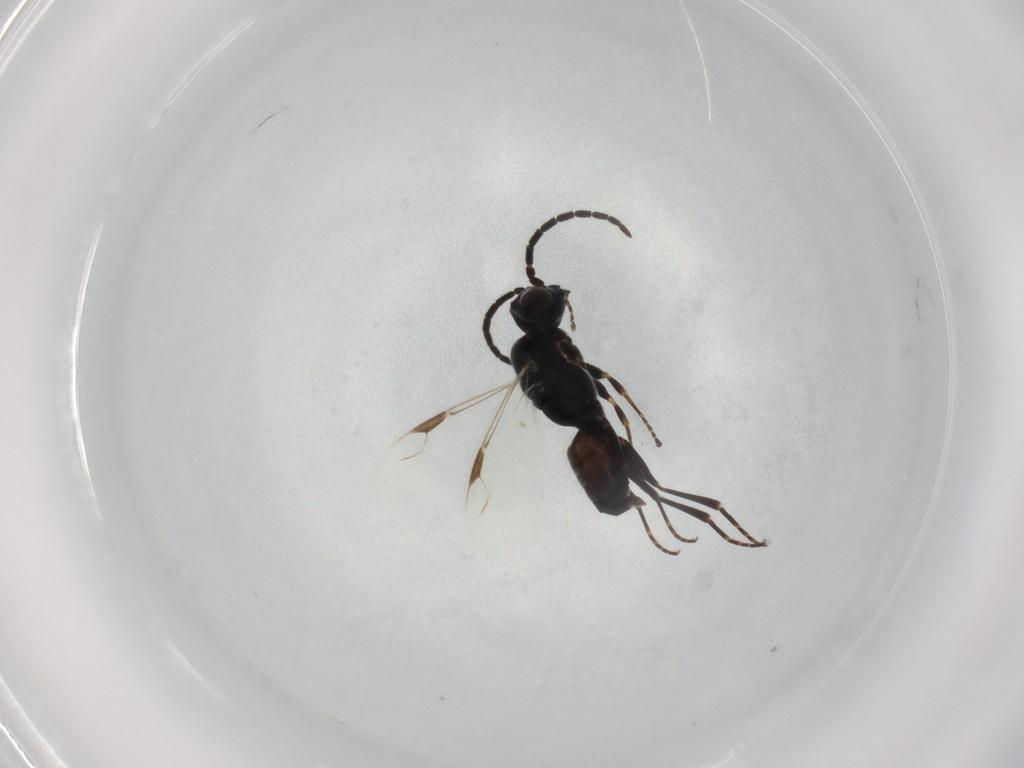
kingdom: Animalia
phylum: Arthropoda
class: Insecta
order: Hymenoptera
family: Dryinidae
